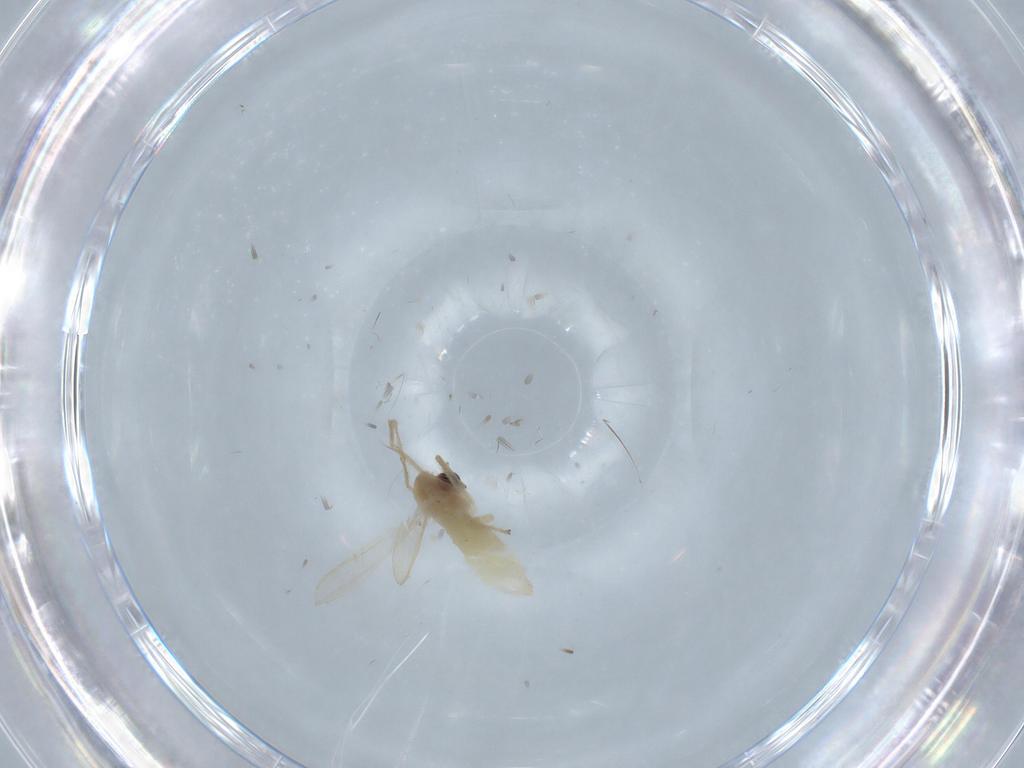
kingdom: Animalia
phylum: Arthropoda
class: Insecta
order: Diptera
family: Chironomidae
